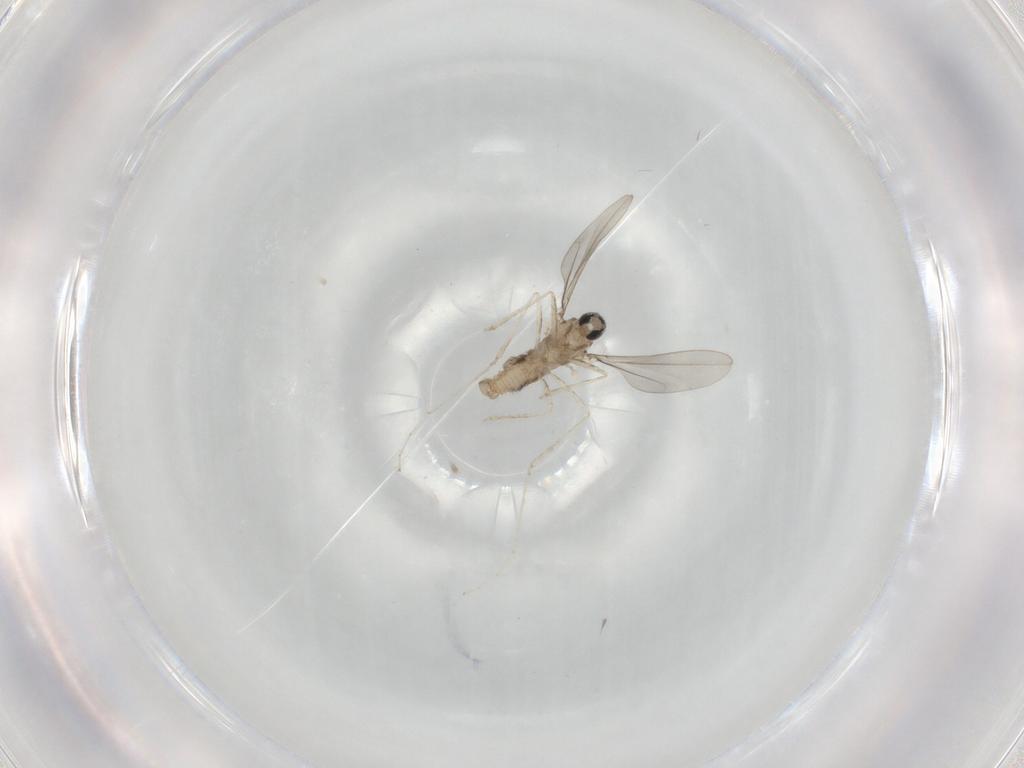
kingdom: Animalia
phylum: Arthropoda
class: Insecta
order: Diptera
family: Cecidomyiidae
